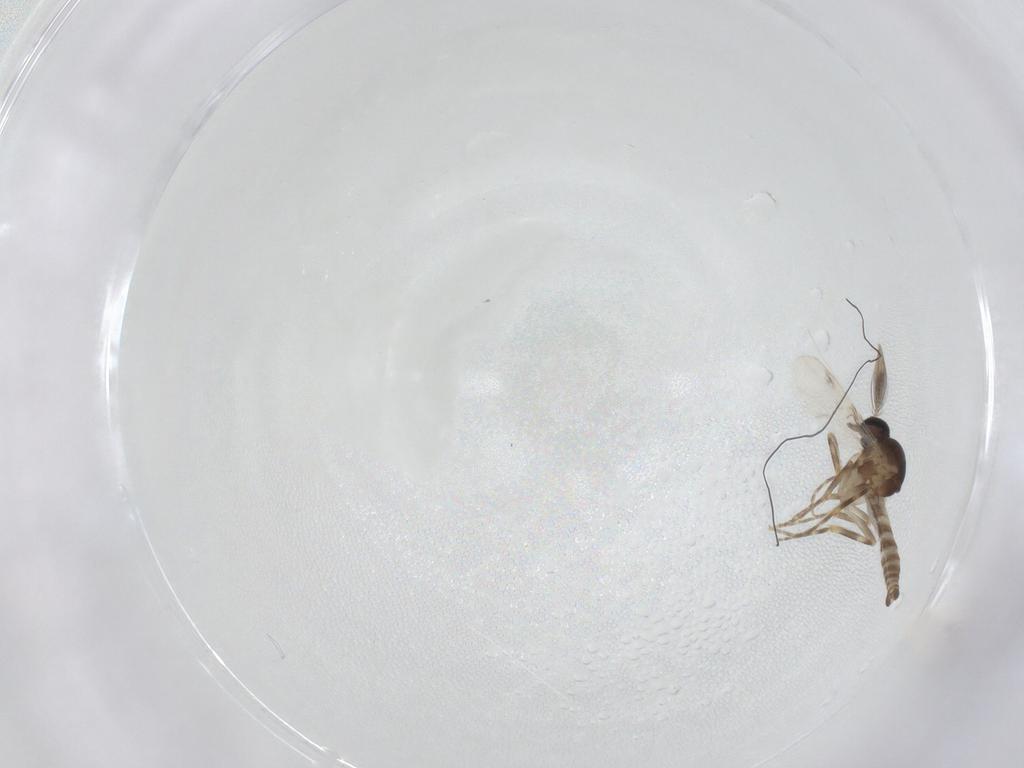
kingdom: Animalia
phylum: Arthropoda
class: Insecta
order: Diptera
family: Ceratopogonidae
